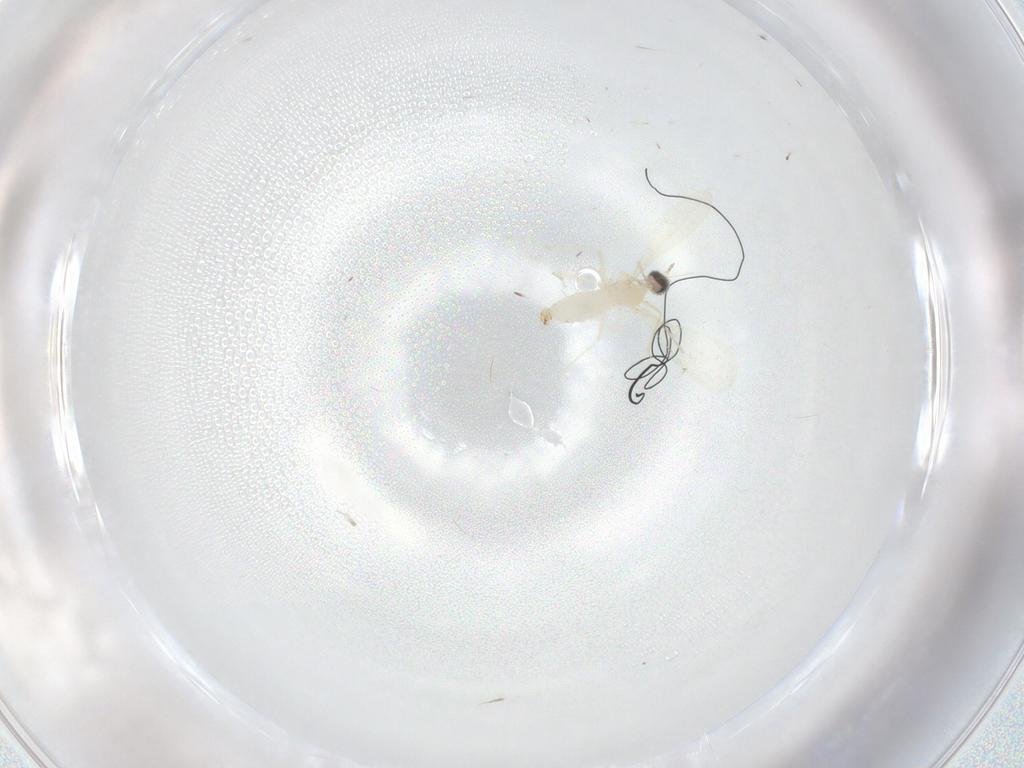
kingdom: Animalia
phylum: Arthropoda
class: Insecta
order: Diptera
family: Cecidomyiidae
